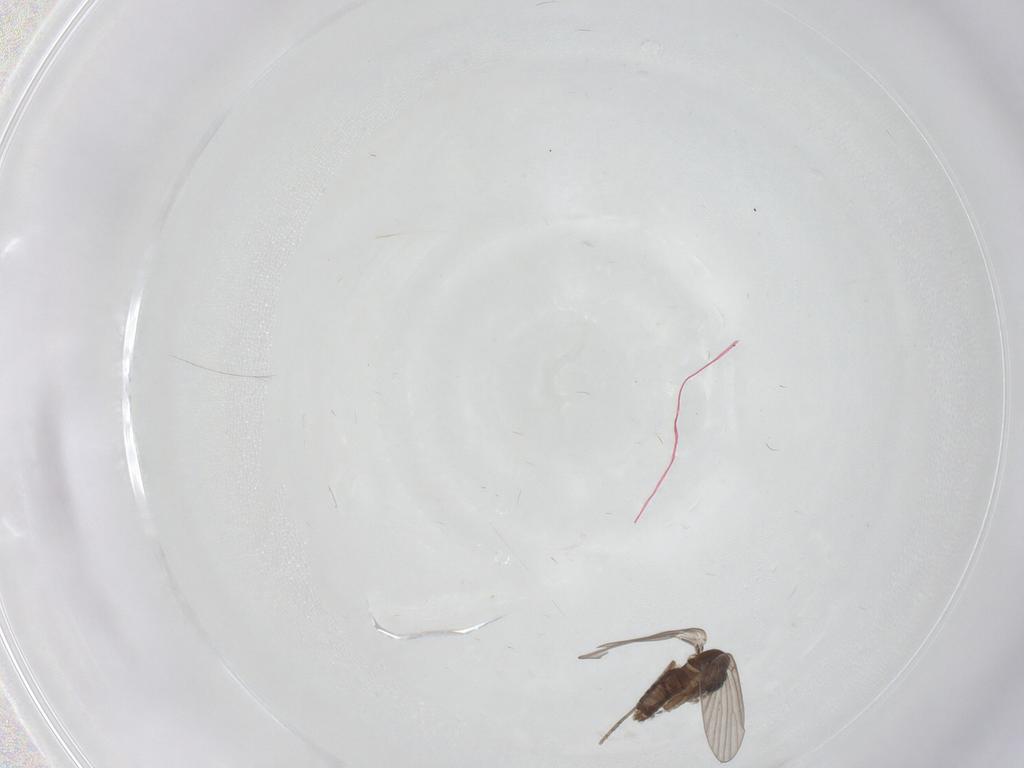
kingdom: Animalia
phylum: Arthropoda
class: Insecta
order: Diptera
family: Limoniidae
